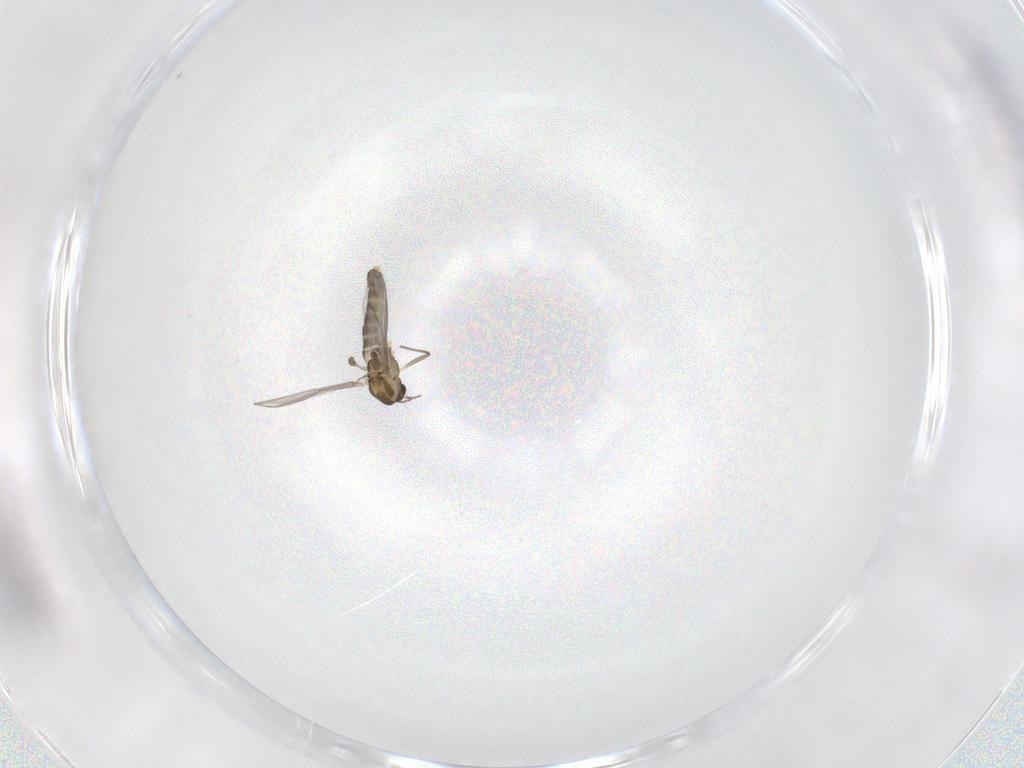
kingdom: Animalia
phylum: Arthropoda
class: Insecta
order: Diptera
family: Chironomidae
